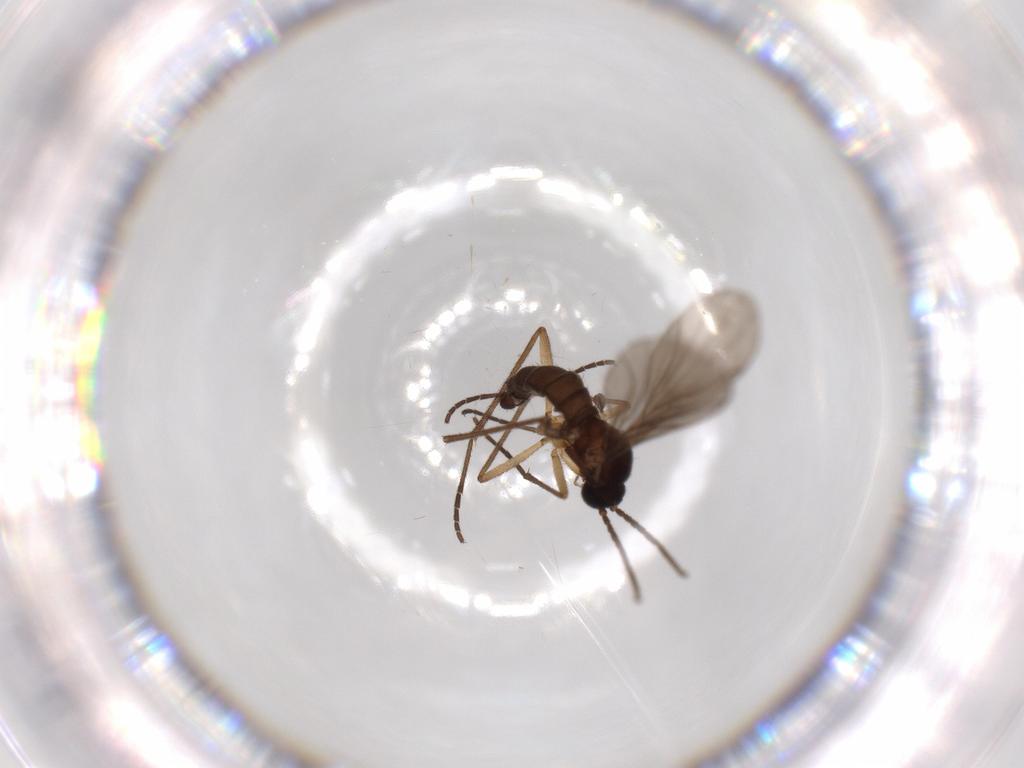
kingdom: Animalia
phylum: Arthropoda
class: Insecta
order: Diptera
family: Sciaridae
